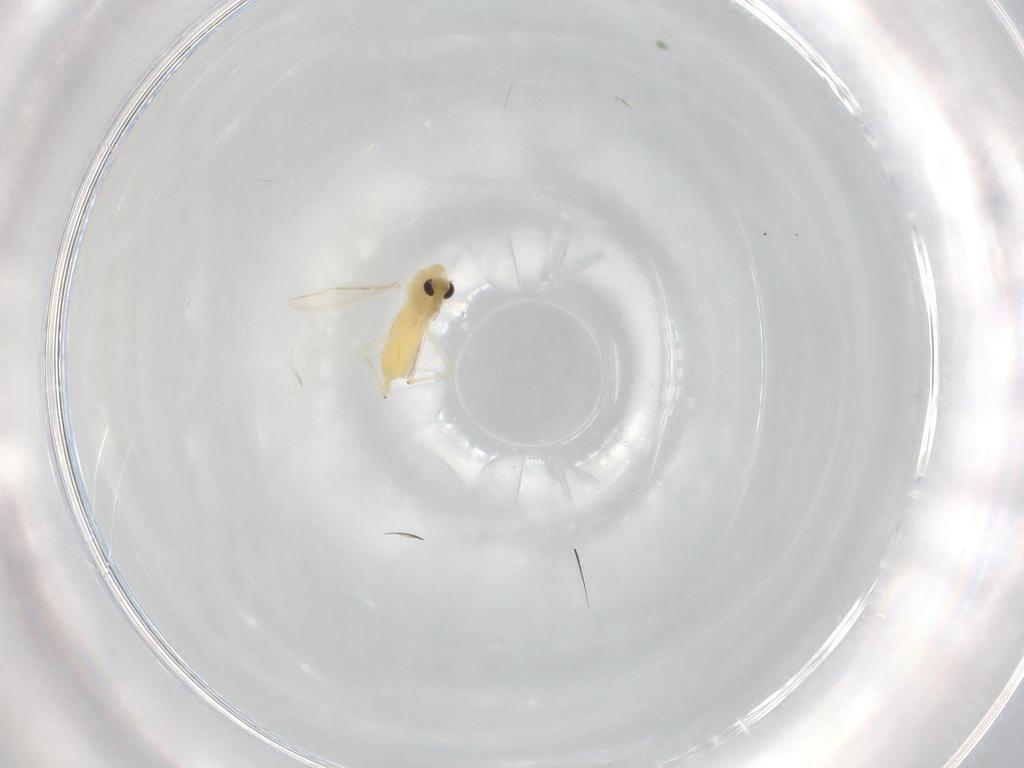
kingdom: Animalia
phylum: Arthropoda
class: Insecta
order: Diptera
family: Chironomidae
